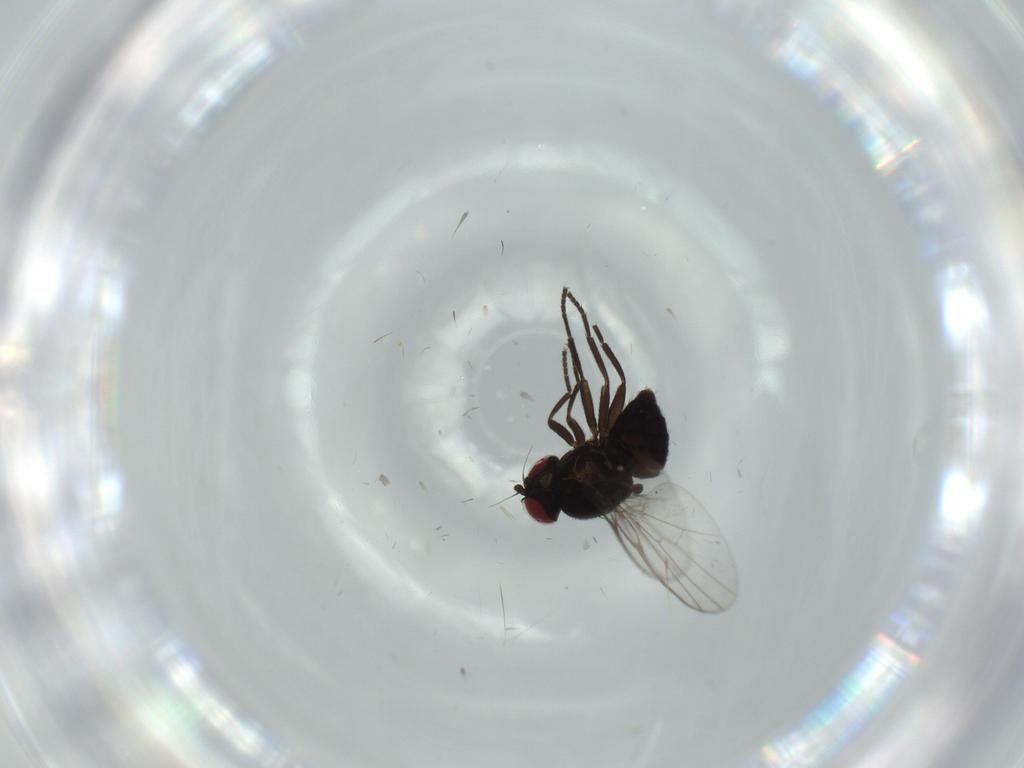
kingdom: Animalia
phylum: Arthropoda
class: Insecta
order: Diptera
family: Agromyzidae
